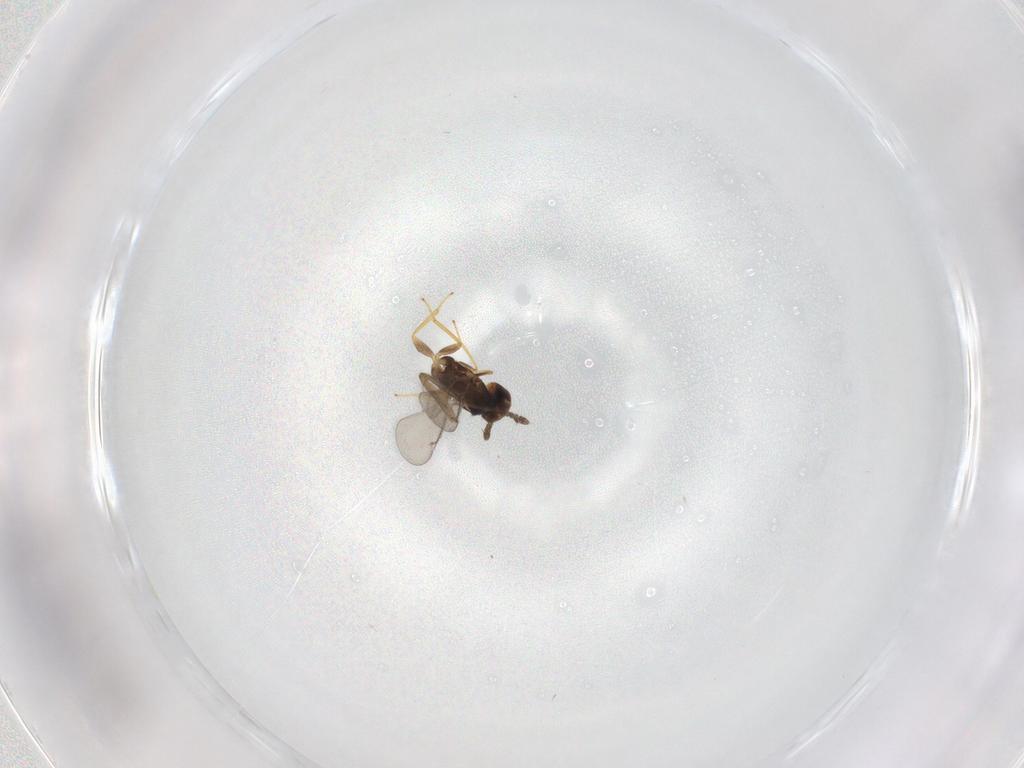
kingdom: Animalia
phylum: Arthropoda
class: Insecta
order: Hymenoptera
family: Eulophidae
